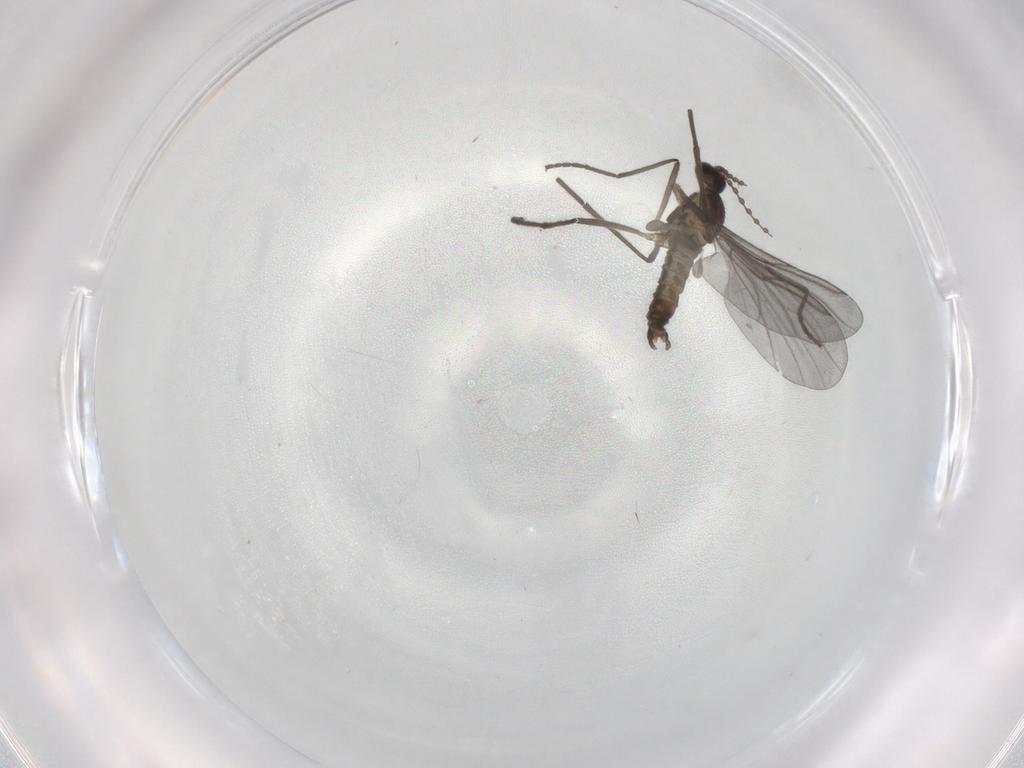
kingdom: Animalia
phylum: Arthropoda
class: Insecta
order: Diptera
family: Cecidomyiidae
